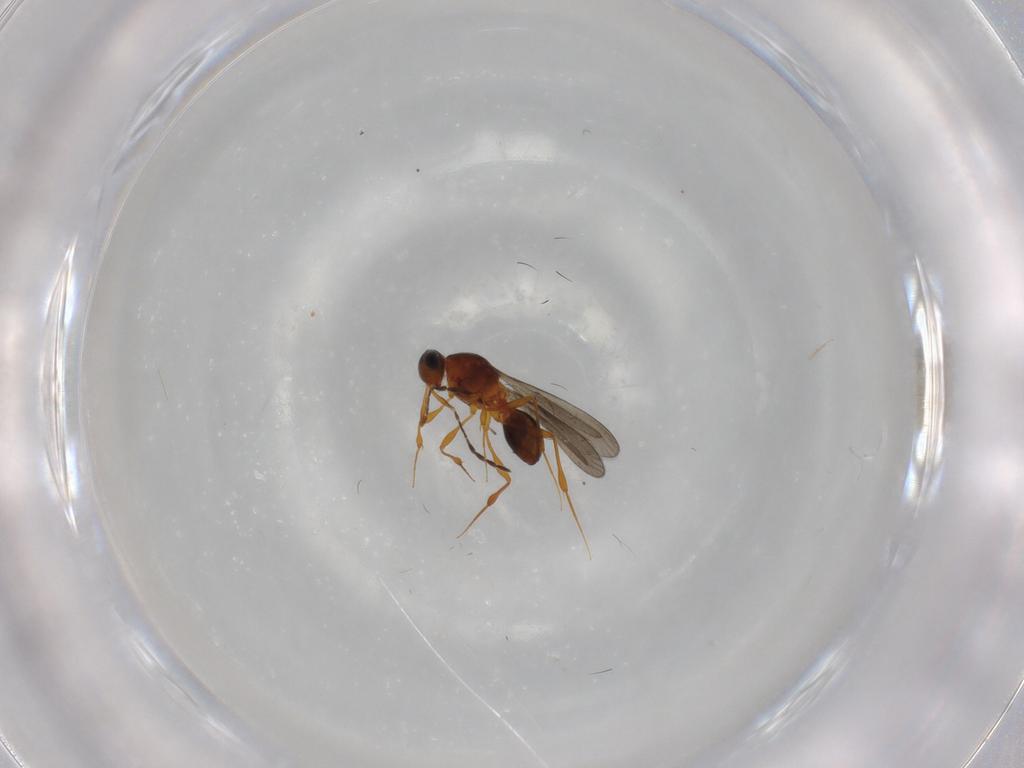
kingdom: Animalia
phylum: Arthropoda
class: Insecta
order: Hymenoptera
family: Platygastridae
